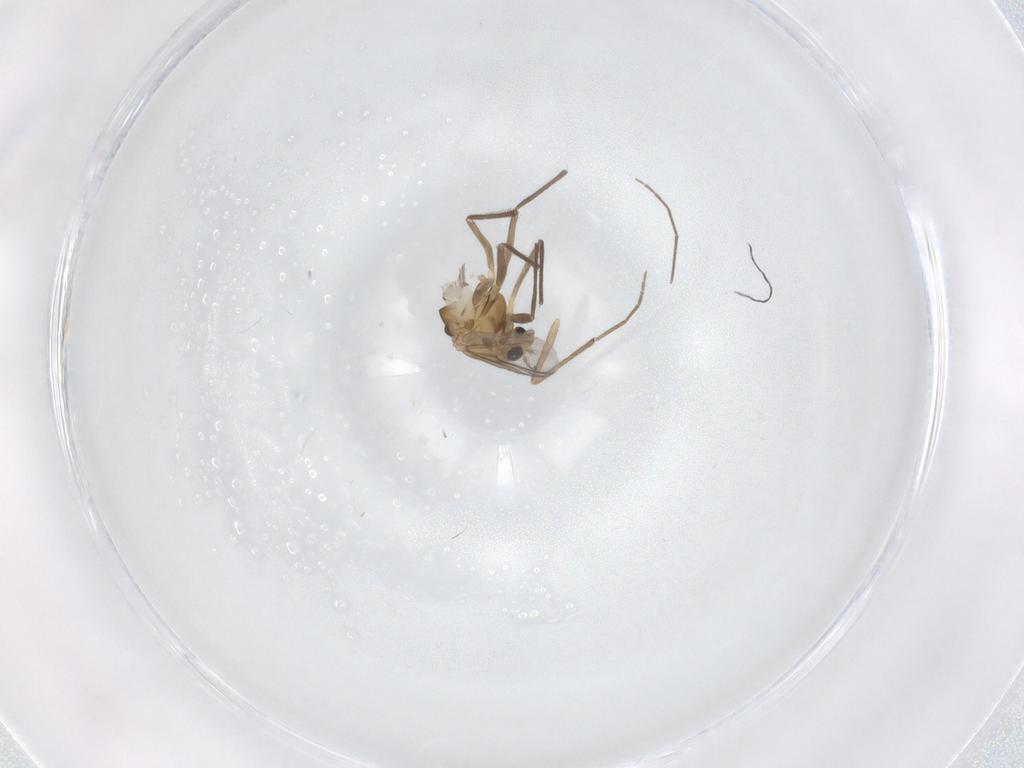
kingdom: Animalia
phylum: Arthropoda
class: Insecta
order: Diptera
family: Chironomidae
